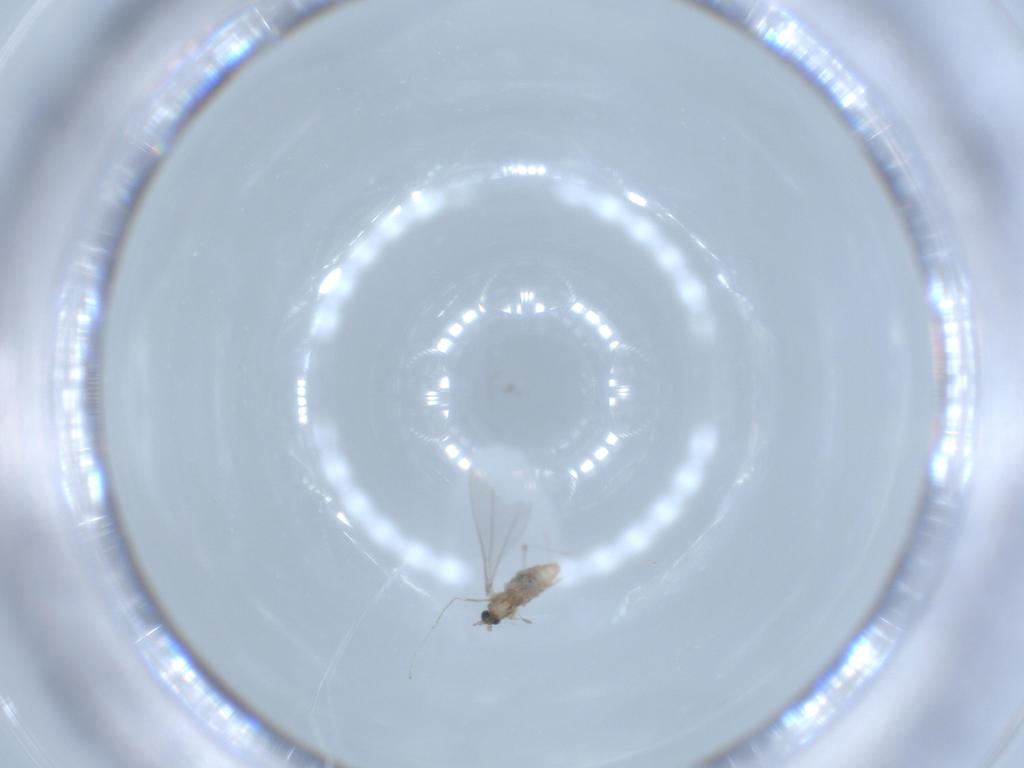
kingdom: Animalia
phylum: Arthropoda
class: Insecta
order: Diptera
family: Cecidomyiidae
